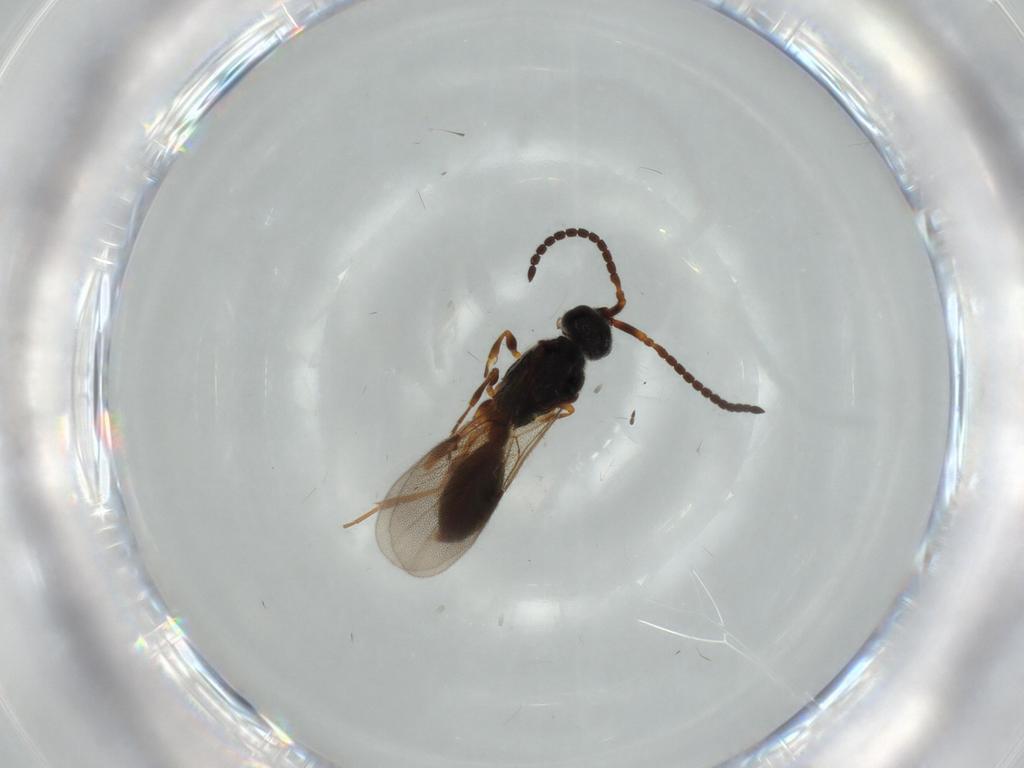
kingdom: Animalia
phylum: Arthropoda
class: Insecta
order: Hymenoptera
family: Diapriidae
